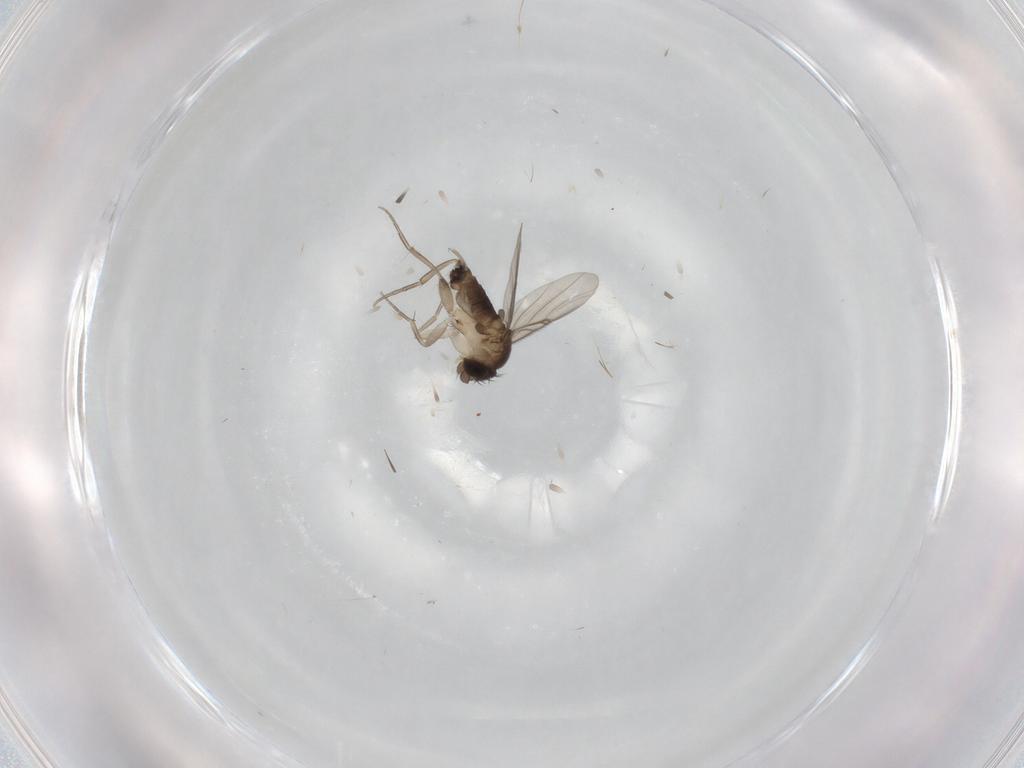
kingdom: Animalia
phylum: Arthropoda
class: Insecta
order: Diptera
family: Phoridae
